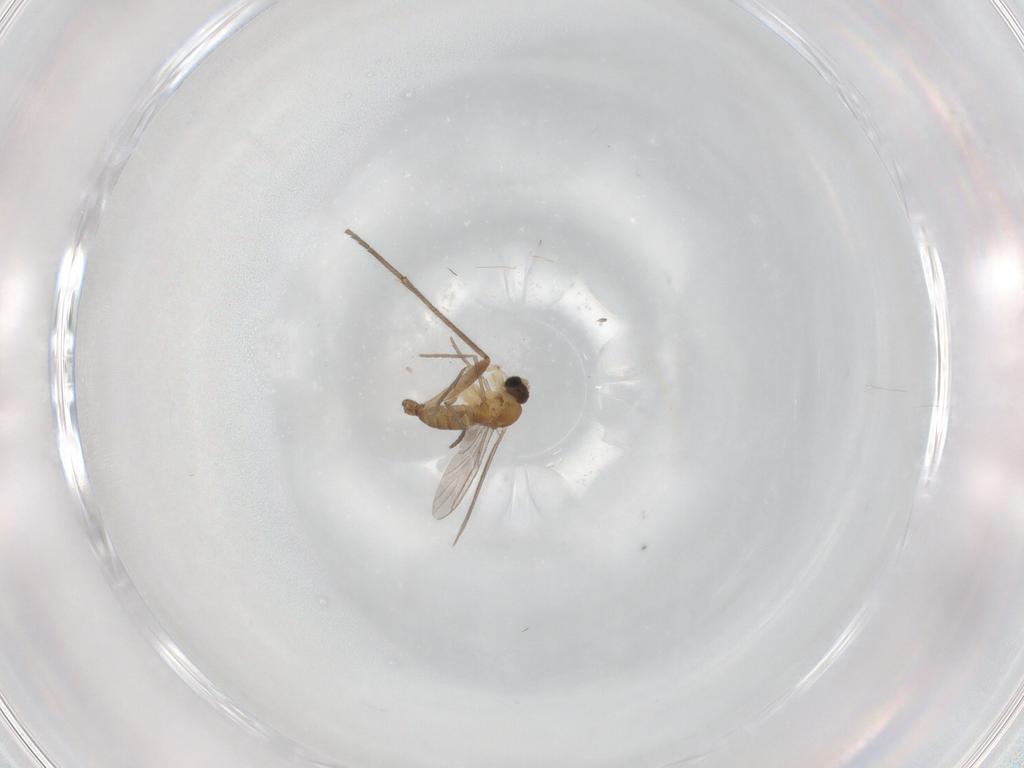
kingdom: Animalia
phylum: Arthropoda
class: Insecta
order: Diptera
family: Sciaridae
